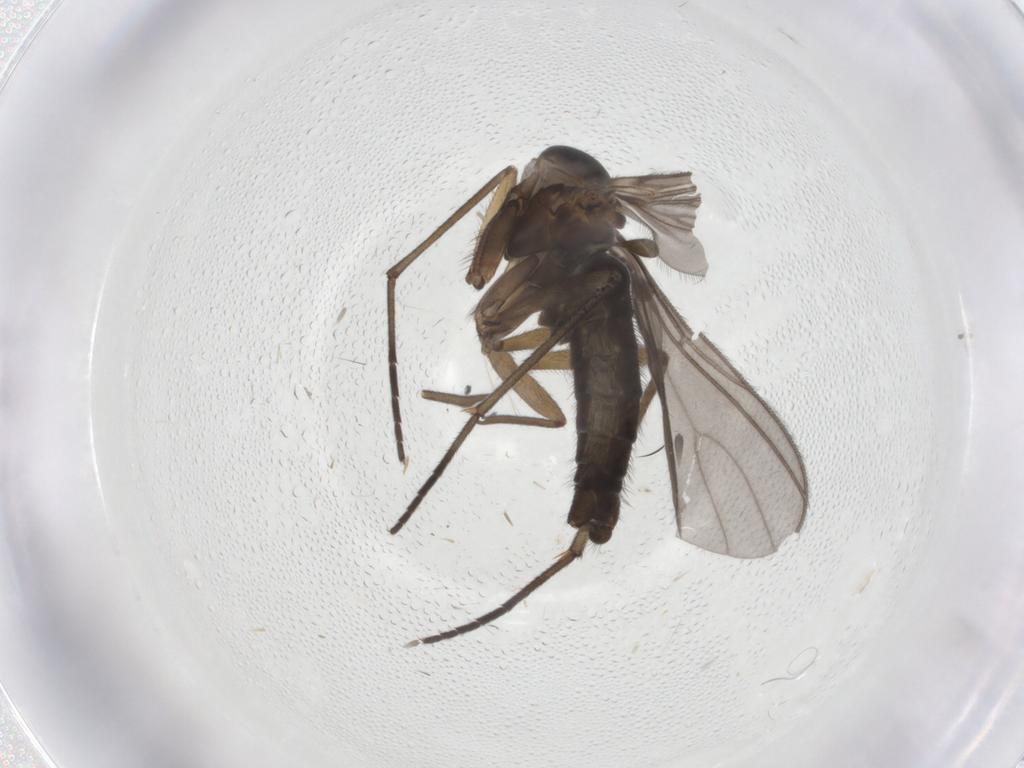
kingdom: Animalia
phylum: Arthropoda
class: Insecta
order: Diptera
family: Sciaridae
